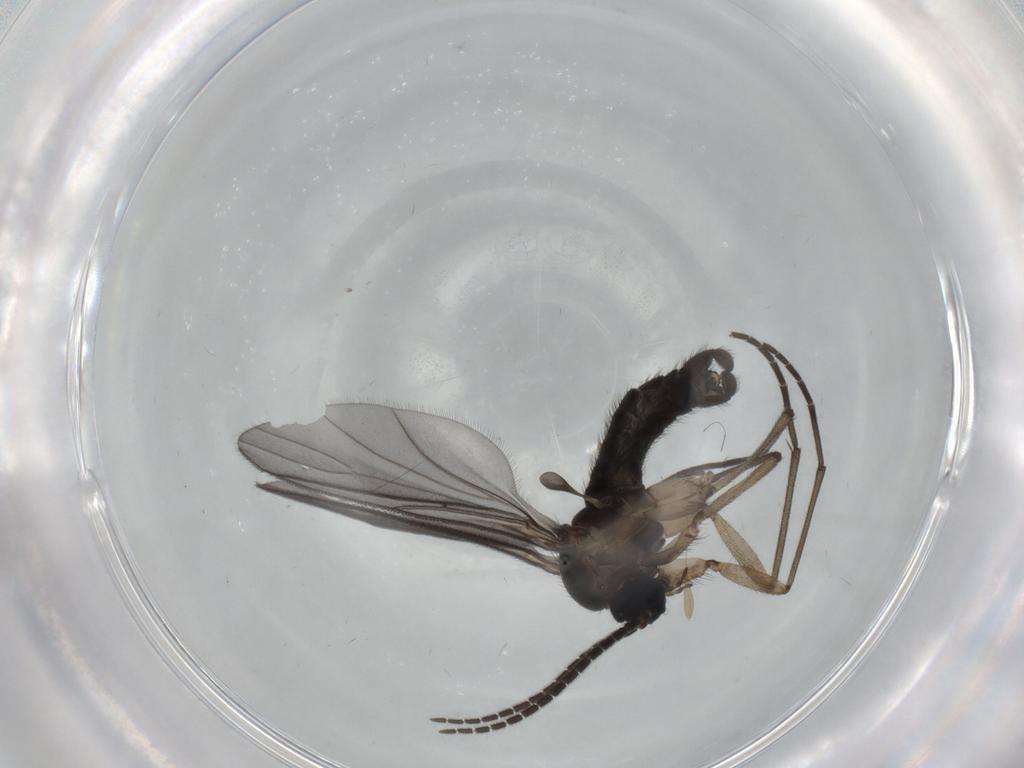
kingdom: Animalia
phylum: Arthropoda
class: Insecta
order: Diptera
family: Sciaridae
